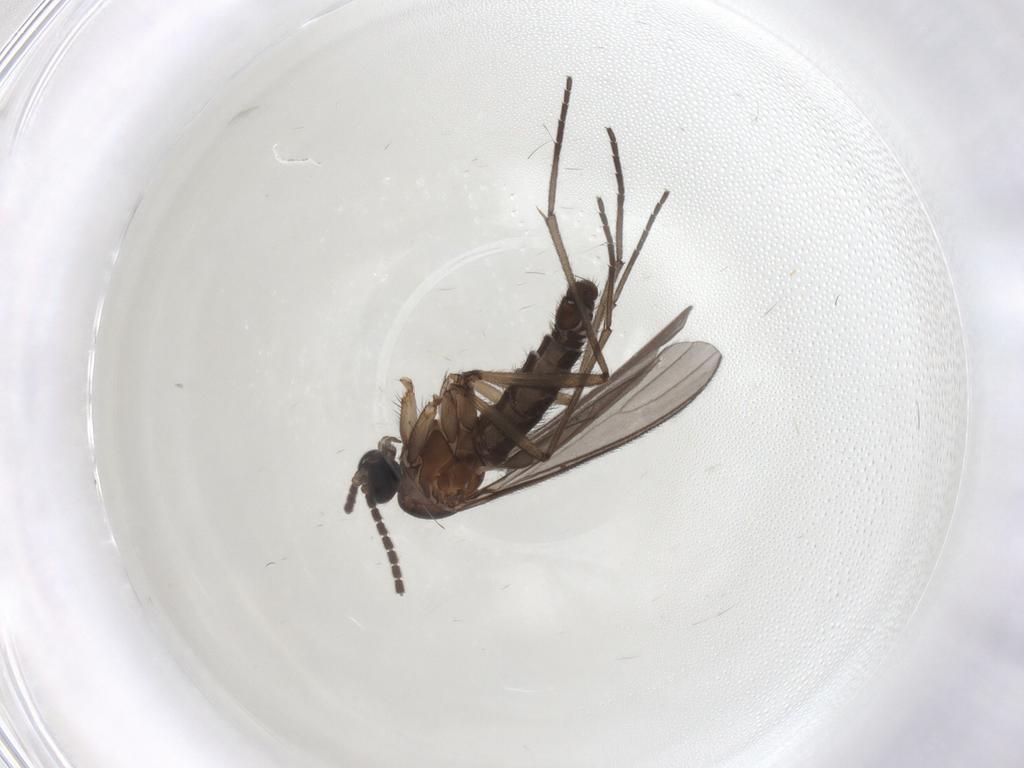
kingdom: Animalia
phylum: Arthropoda
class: Insecta
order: Diptera
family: Sciaridae
